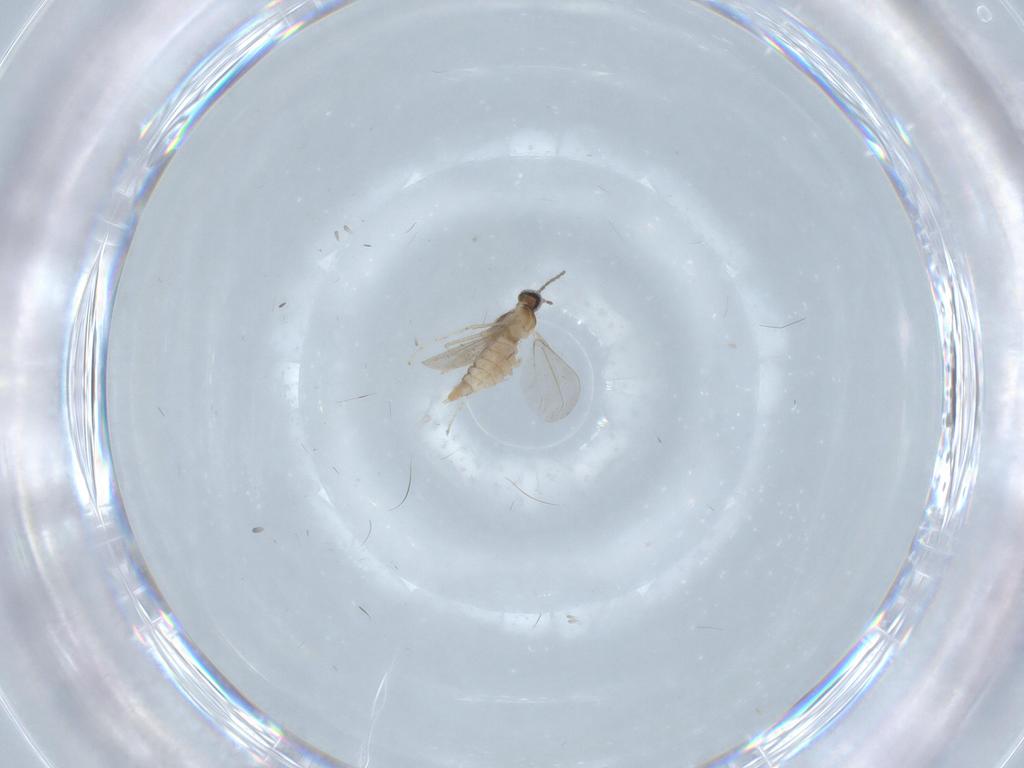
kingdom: Animalia
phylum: Arthropoda
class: Insecta
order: Diptera
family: Cecidomyiidae
